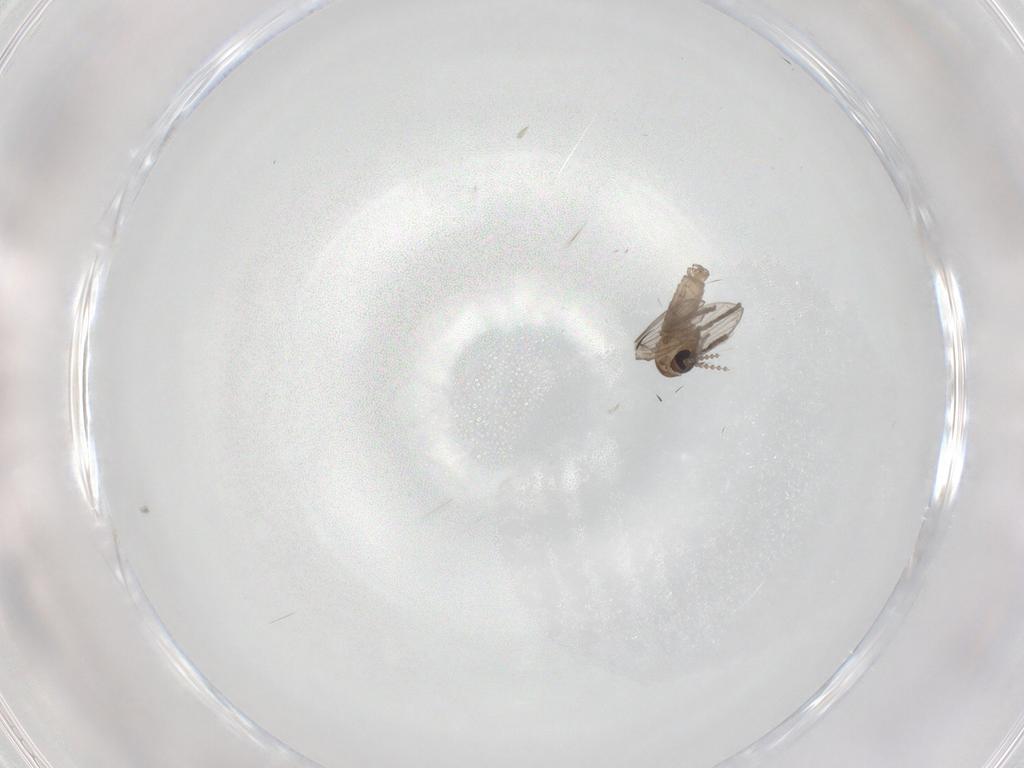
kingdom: Animalia
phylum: Arthropoda
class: Insecta
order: Diptera
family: Psychodidae
